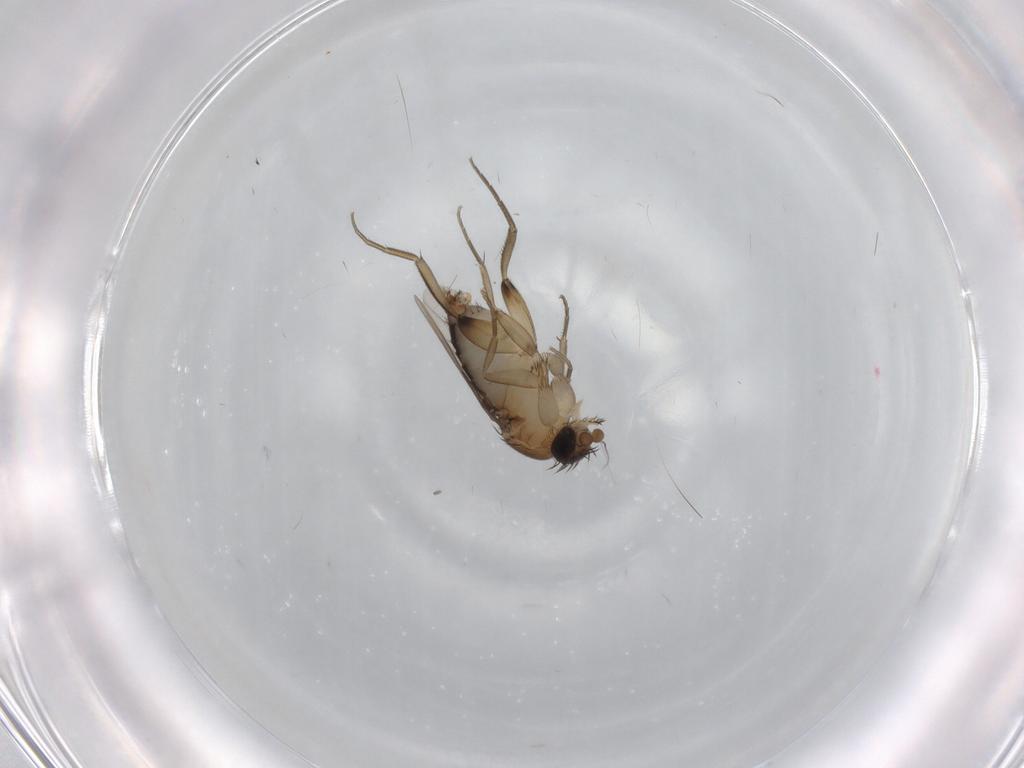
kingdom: Animalia
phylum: Arthropoda
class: Insecta
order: Diptera
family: Phoridae
